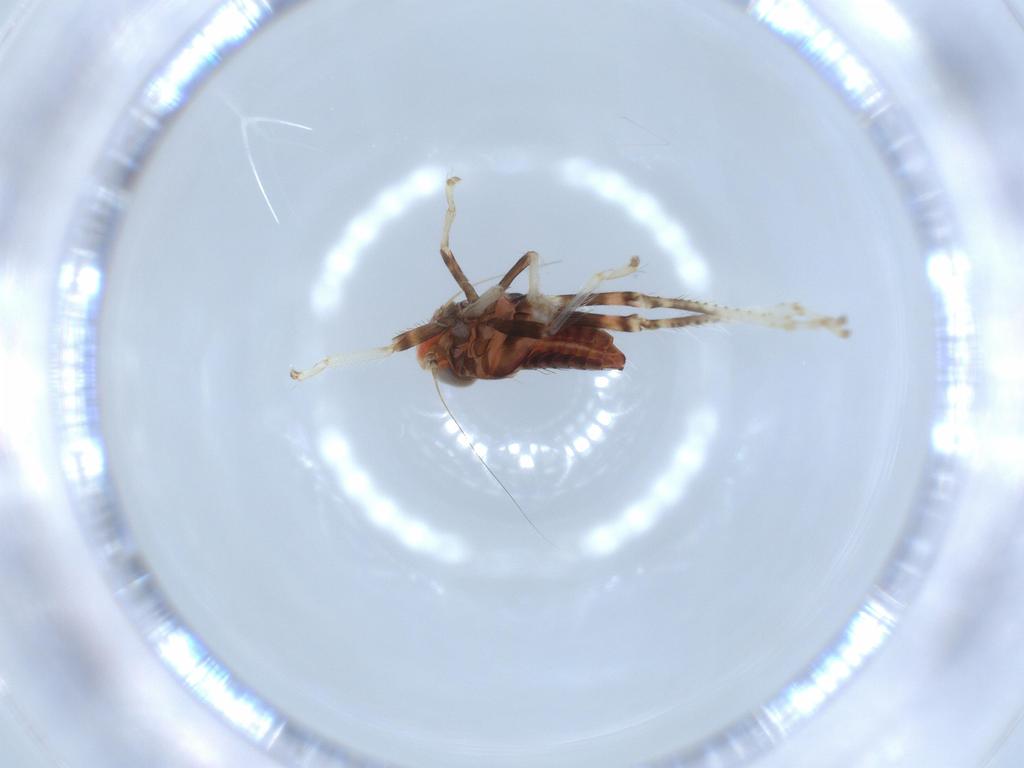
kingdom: Animalia
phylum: Arthropoda
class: Insecta
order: Hemiptera
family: Cicadellidae
